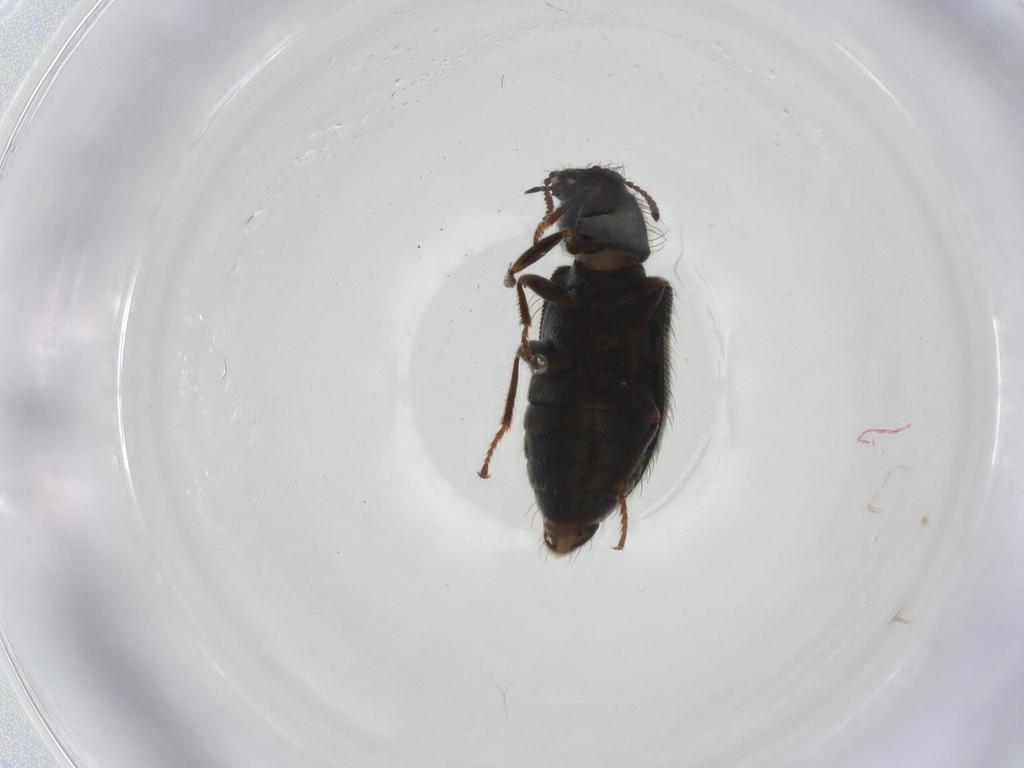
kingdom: Animalia
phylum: Arthropoda
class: Insecta
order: Coleoptera
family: Melyridae
